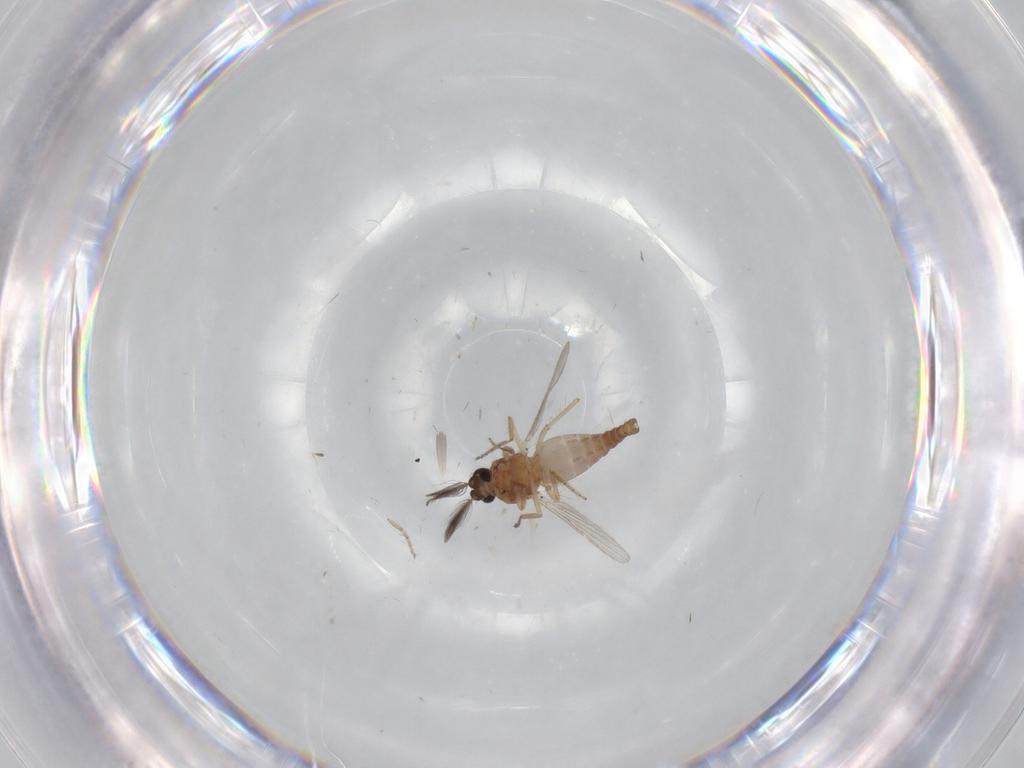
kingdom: Animalia
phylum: Arthropoda
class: Insecta
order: Diptera
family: Ceratopogonidae
